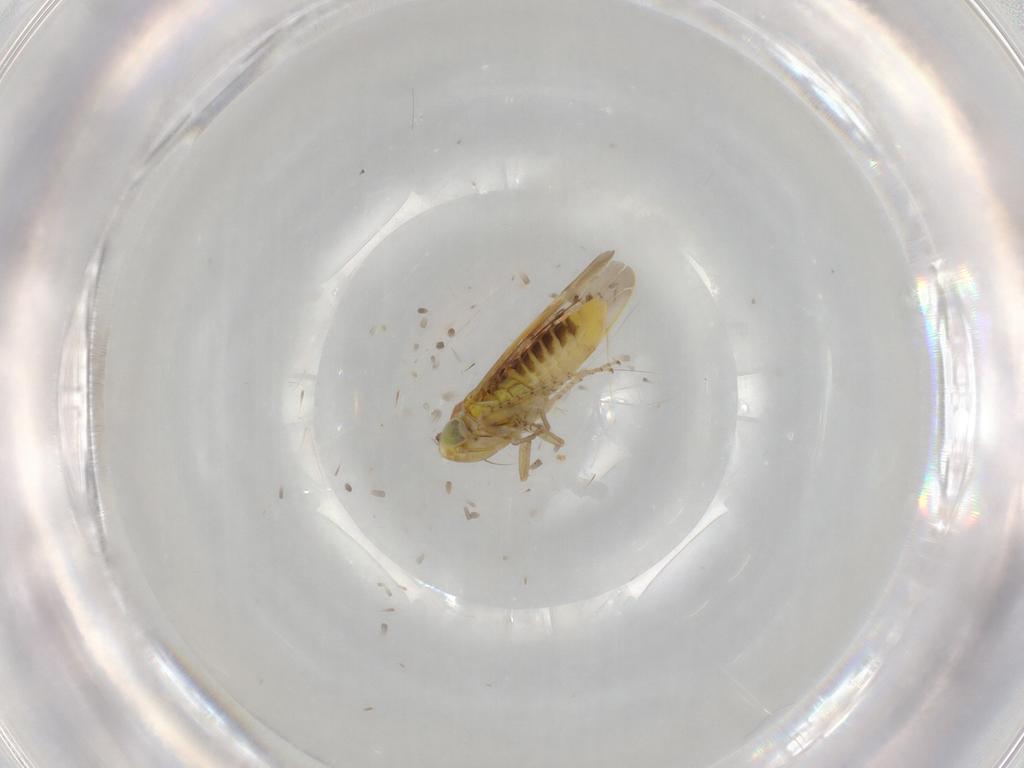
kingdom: Animalia
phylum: Arthropoda
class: Insecta
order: Hemiptera
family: Cicadellidae
